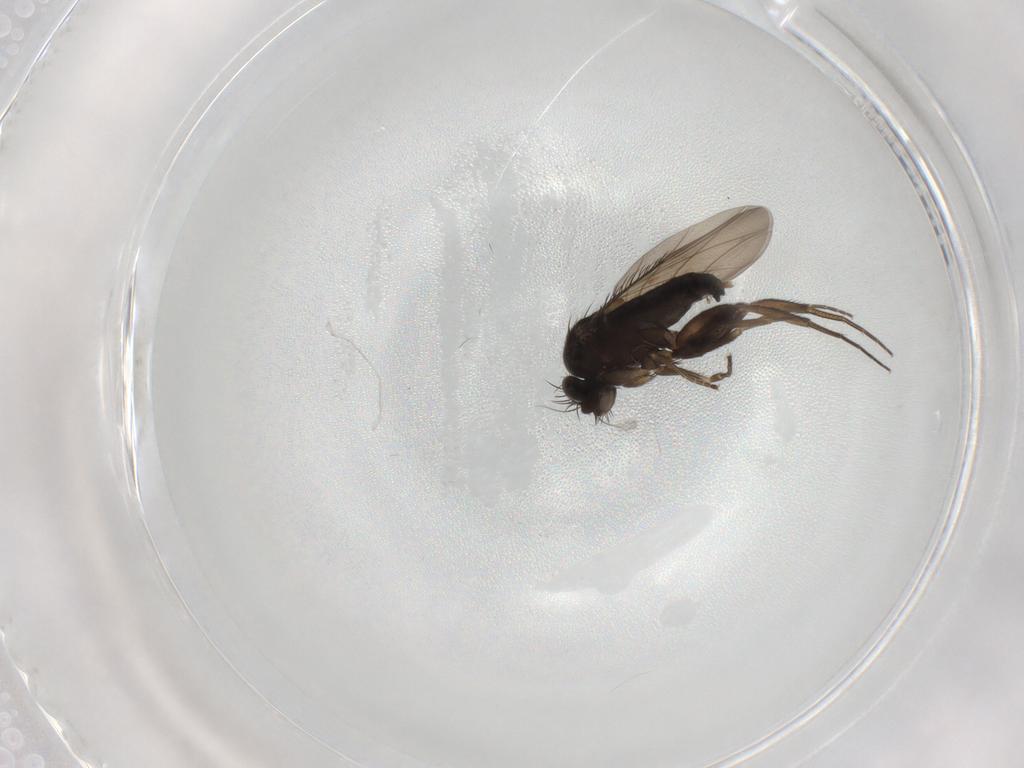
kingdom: Animalia
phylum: Arthropoda
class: Insecta
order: Diptera
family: Phoridae
